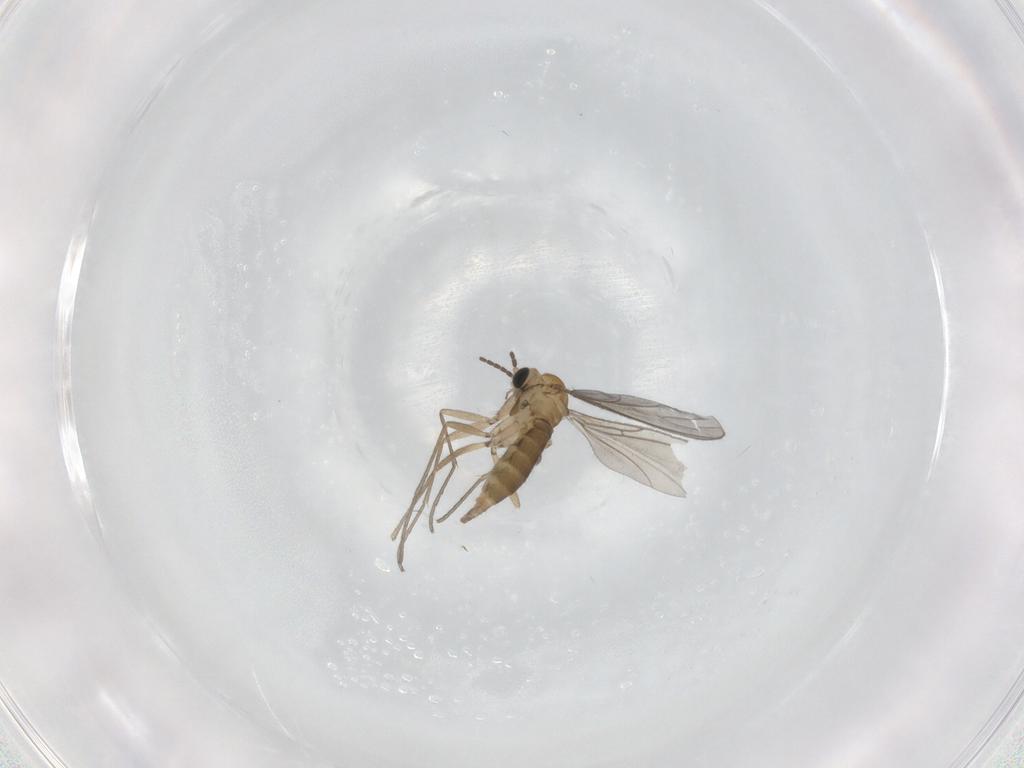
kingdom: Animalia
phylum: Arthropoda
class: Insecta
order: Diptera
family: Sciaridae
